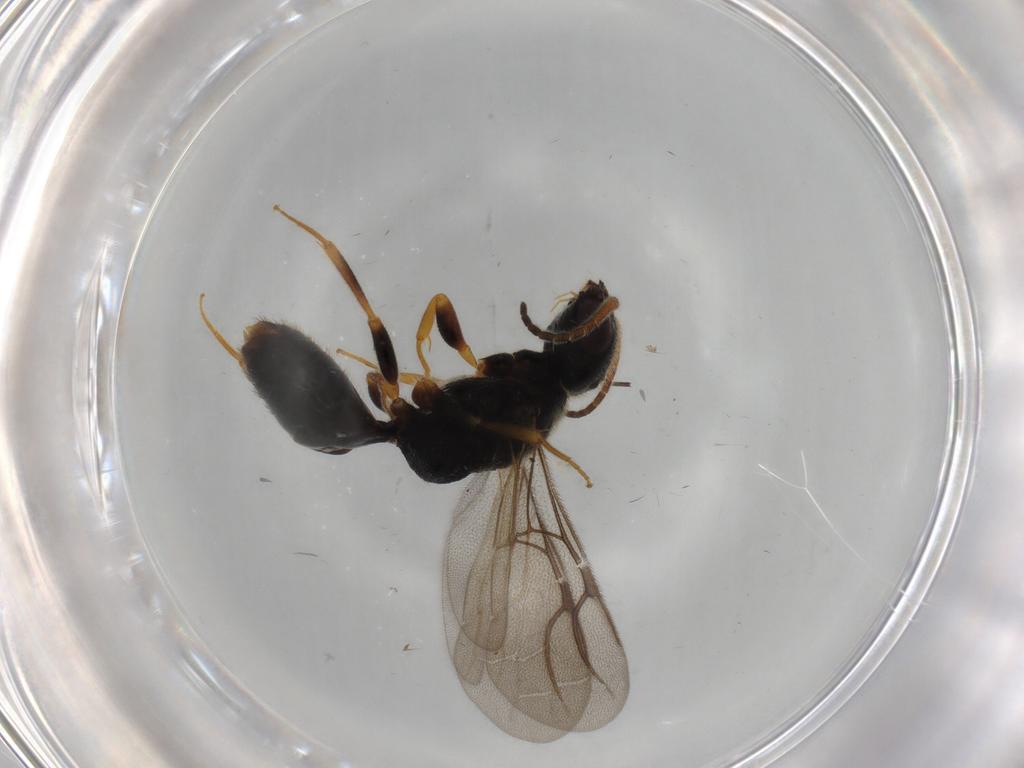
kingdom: Animalia
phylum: Arthropoda
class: Insecta
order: Hymenoptera
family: Bethylidae
